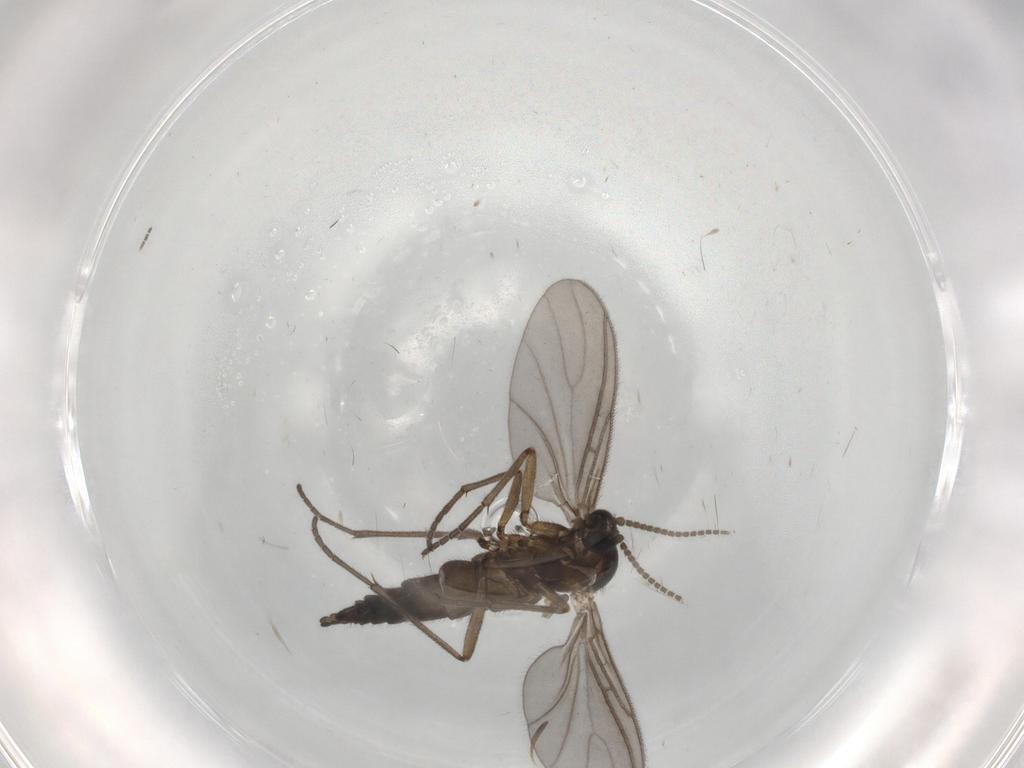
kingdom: Animalia
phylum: Arthropoda
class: Insecta
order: Diptera
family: Sciaridae
